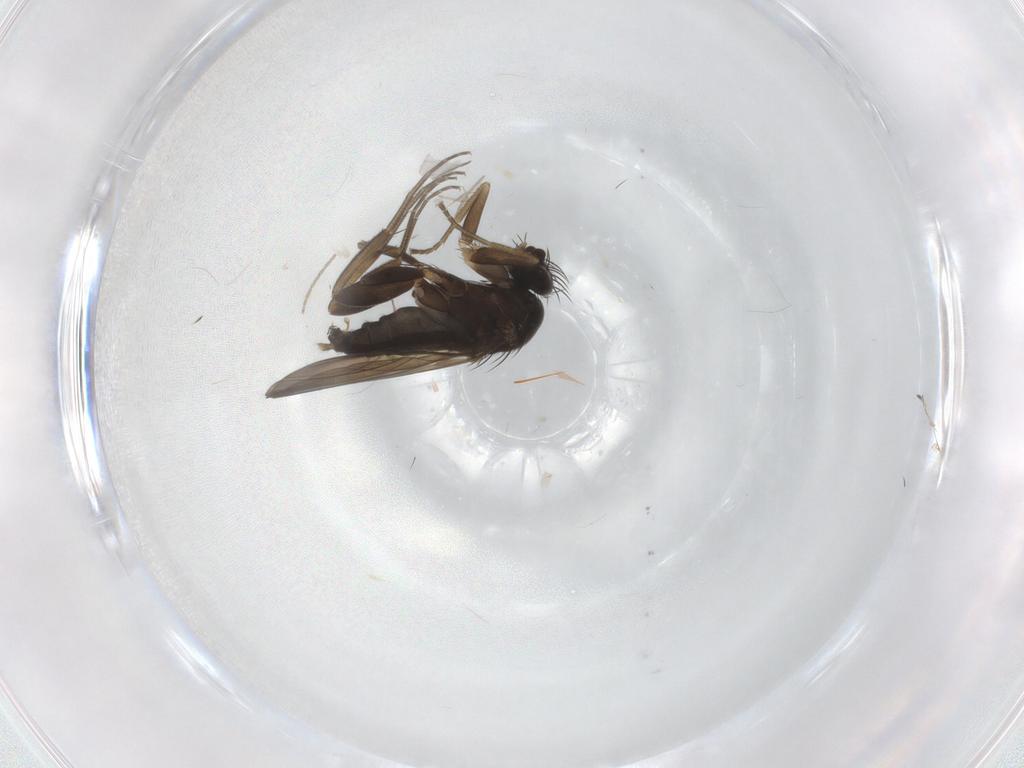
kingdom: Animalia
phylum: Arthropoda
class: Insecta
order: Diptera
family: Phoridae
